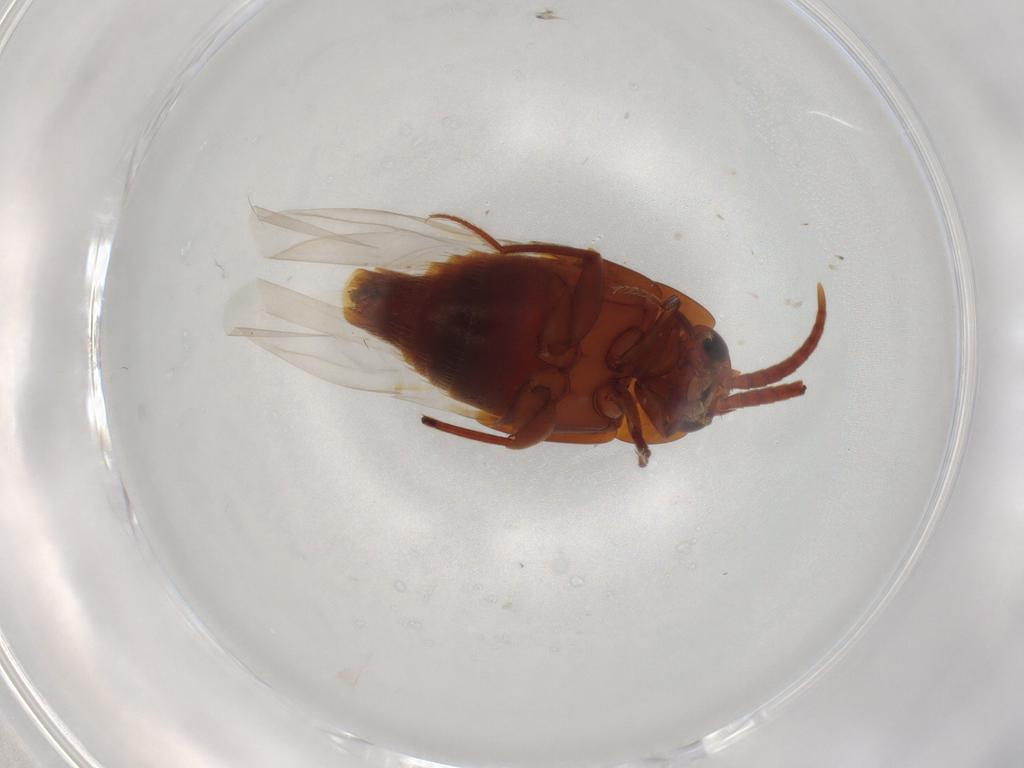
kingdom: Animalia
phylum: Arthropoda
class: Insecta
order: Coleoptera
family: Staphylinidae
